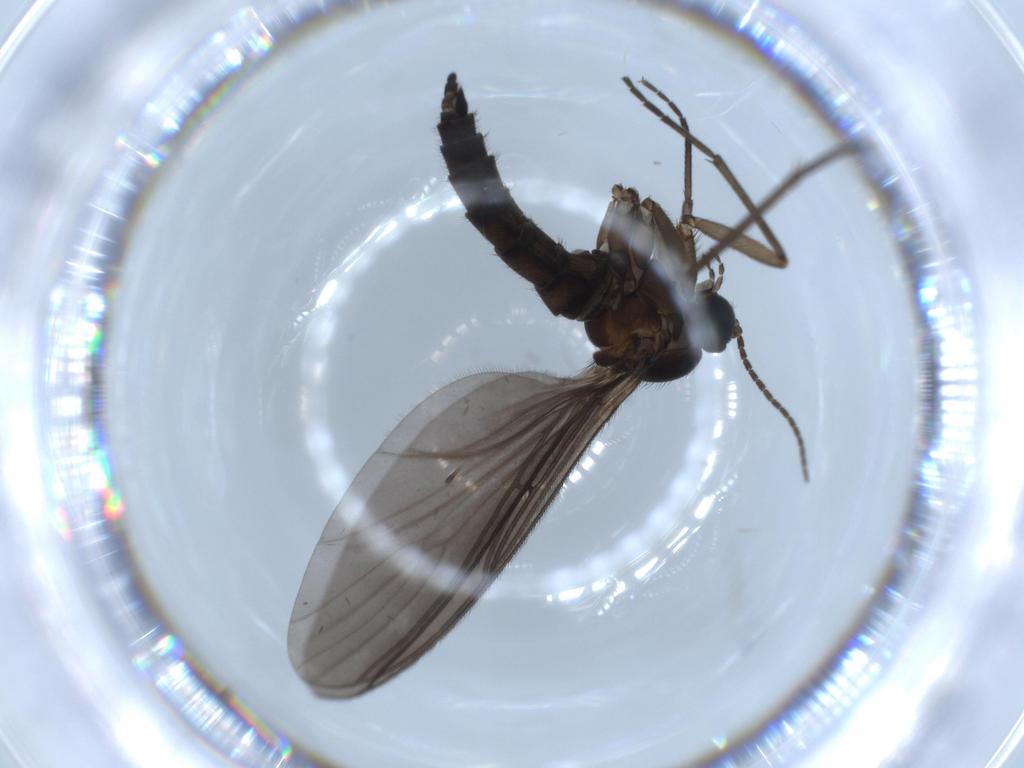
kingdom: Animalia
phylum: Arthropoda
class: Insecta
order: Diptera
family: Sciaridae
